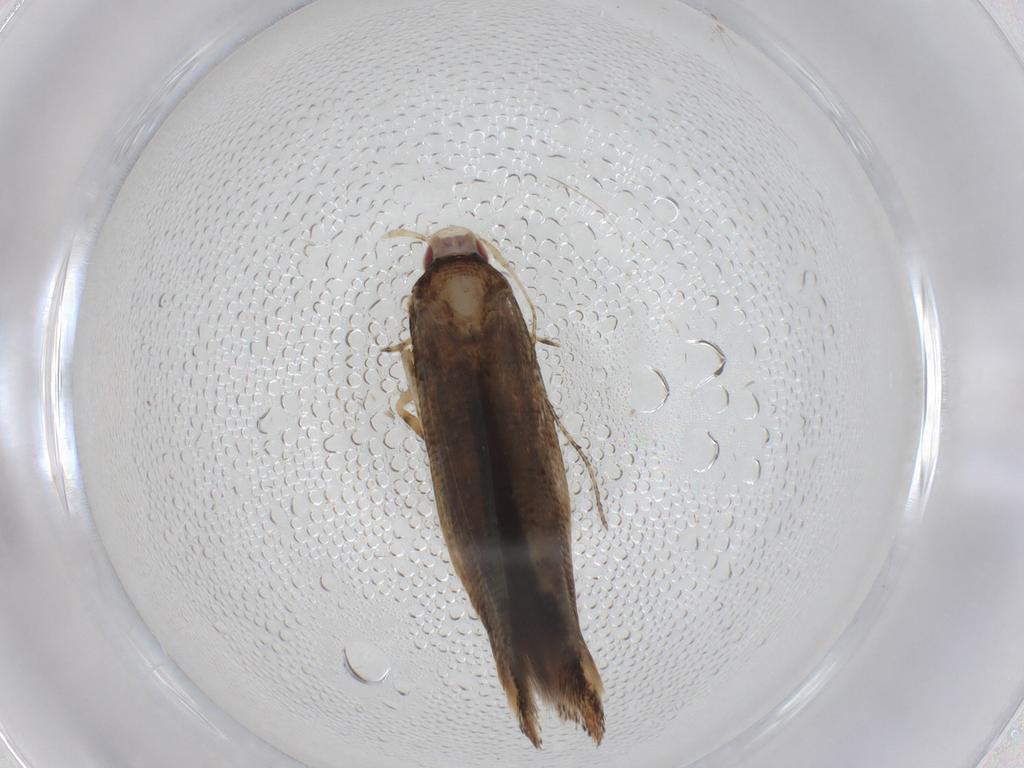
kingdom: Animalia
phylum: Arthropoda
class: Insecta
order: Lepidoptera
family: Cosmopterigidae
